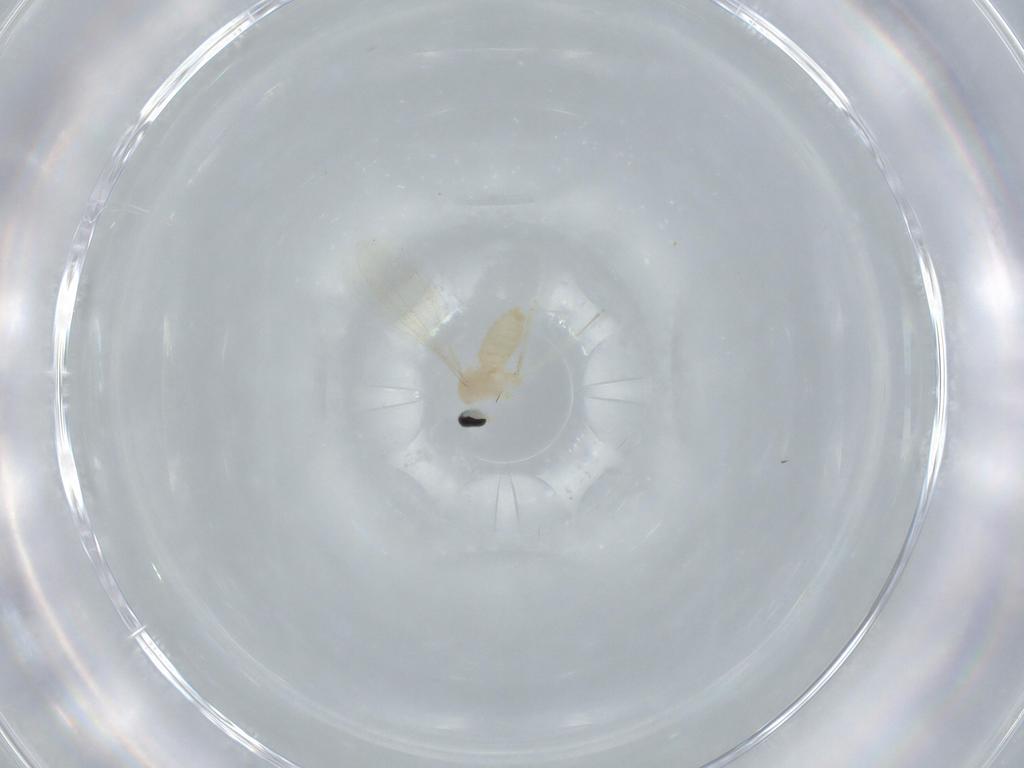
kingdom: Animalia
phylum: Arthropoda
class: Insecta
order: Diptera
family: Cecidomyiidae
